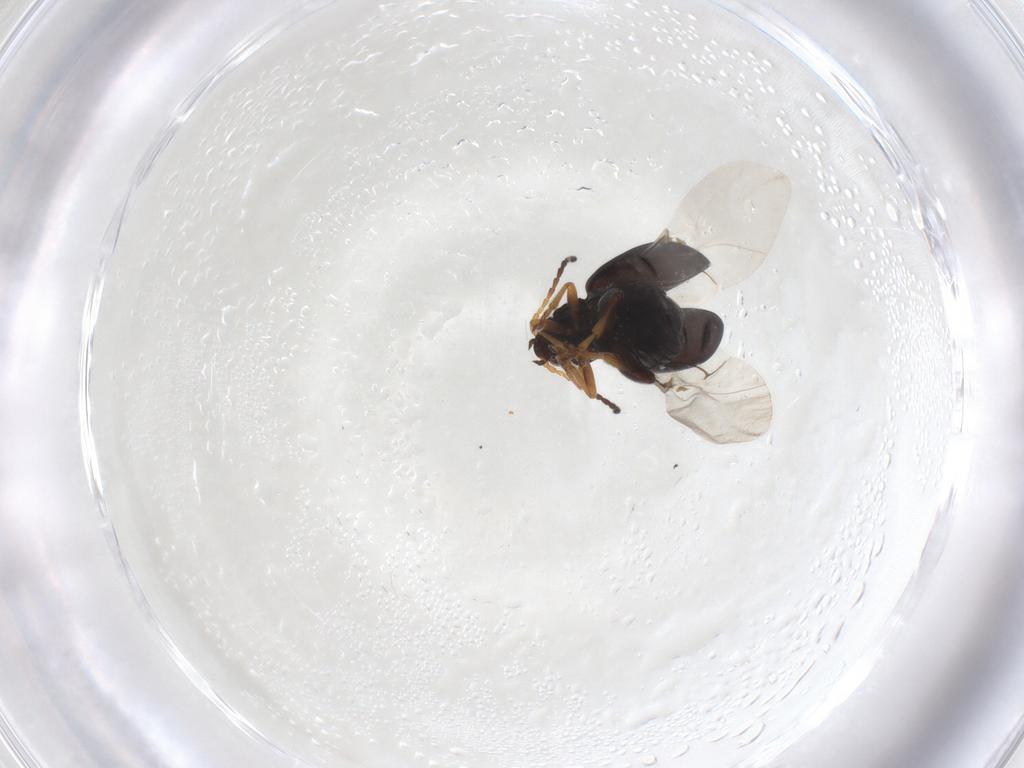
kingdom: Animalia
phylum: Arthropoda
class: Insecta
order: Coleoptera
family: Chrysomelidae
